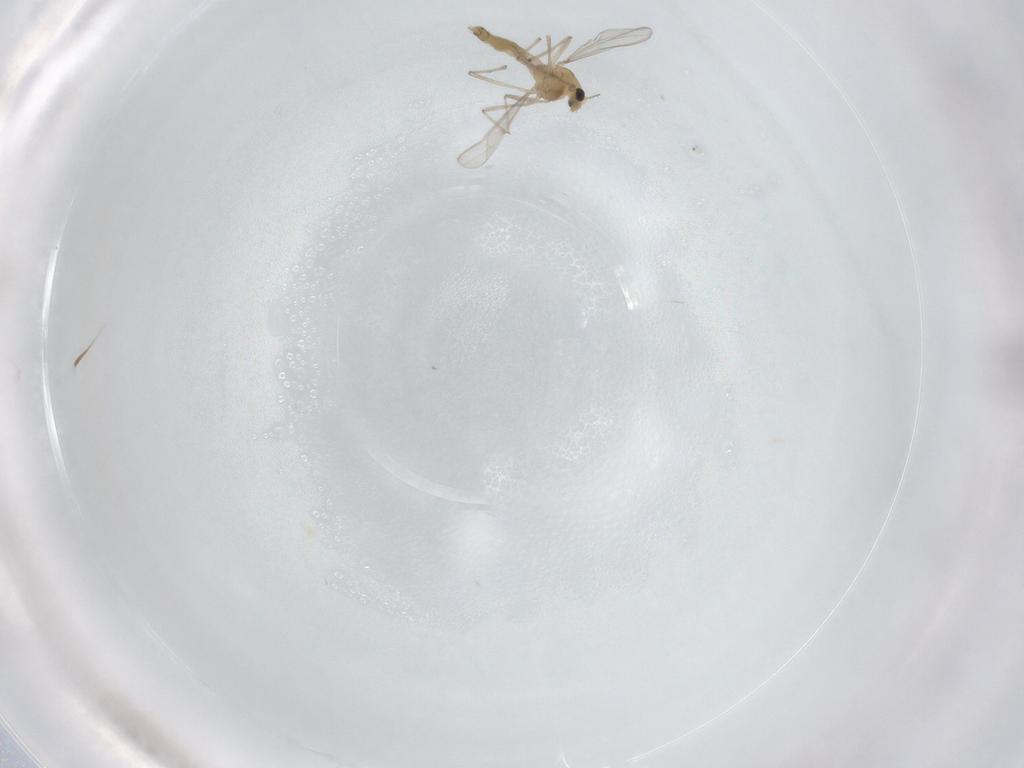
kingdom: Animalia
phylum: Arthropoda
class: Insecta
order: Diptera
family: Chironomidae
